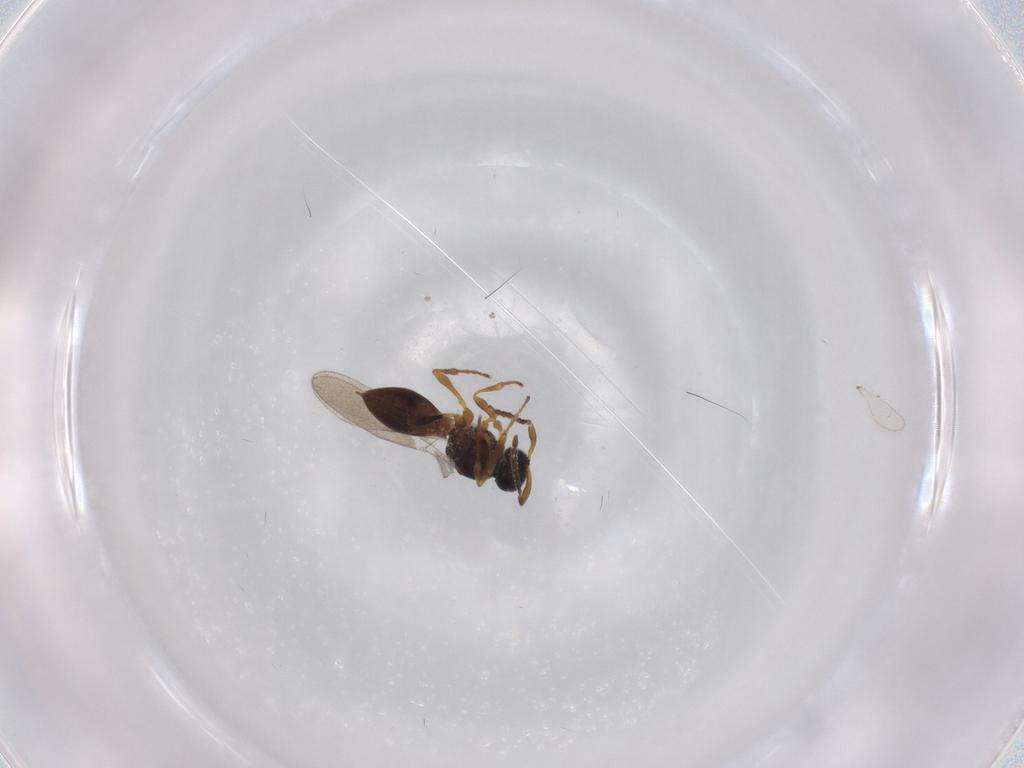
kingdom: Animalia
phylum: Arthropoda
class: Insecta
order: Diptera
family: Mythicomyiidae
